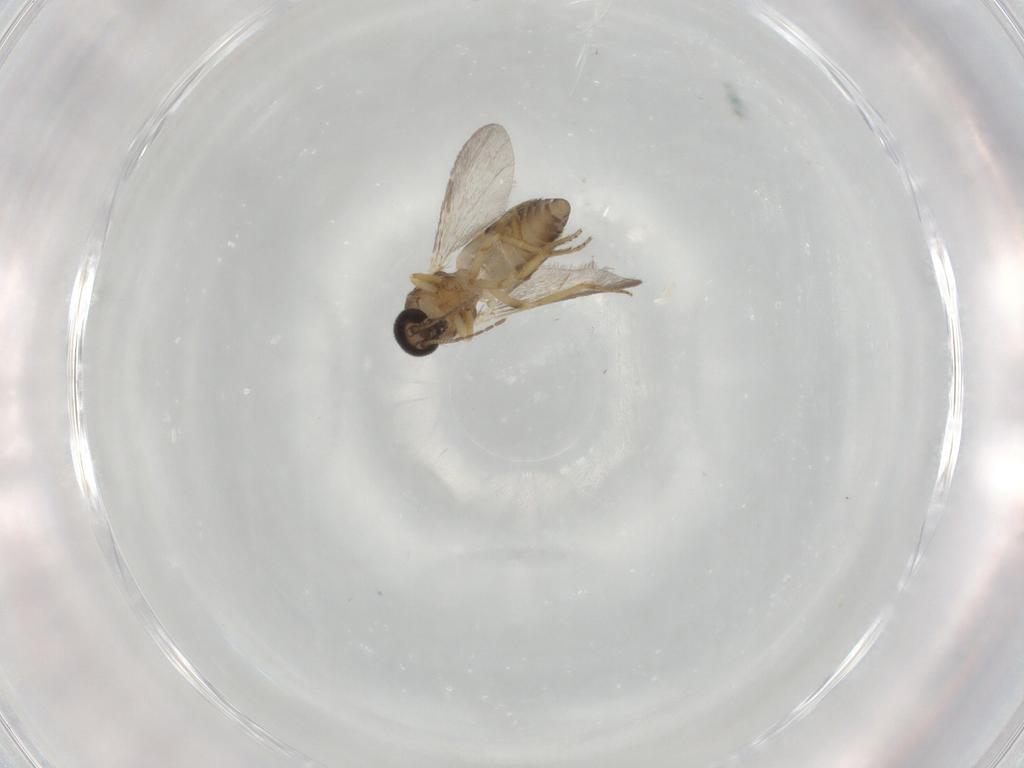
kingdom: Animalia
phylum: Arthropoda
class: Insecta
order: Diptera
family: Ceratopogonidae
